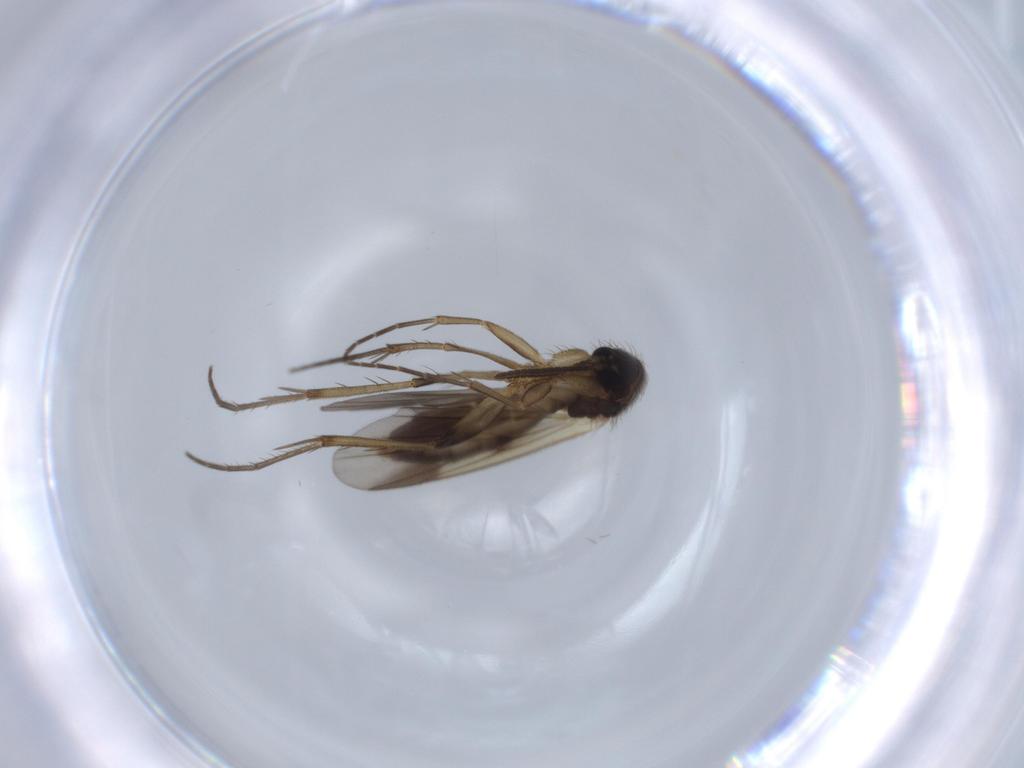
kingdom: Animalia
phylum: Arthropoda
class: Insecta
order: Diptera
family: Mycetophilidae
